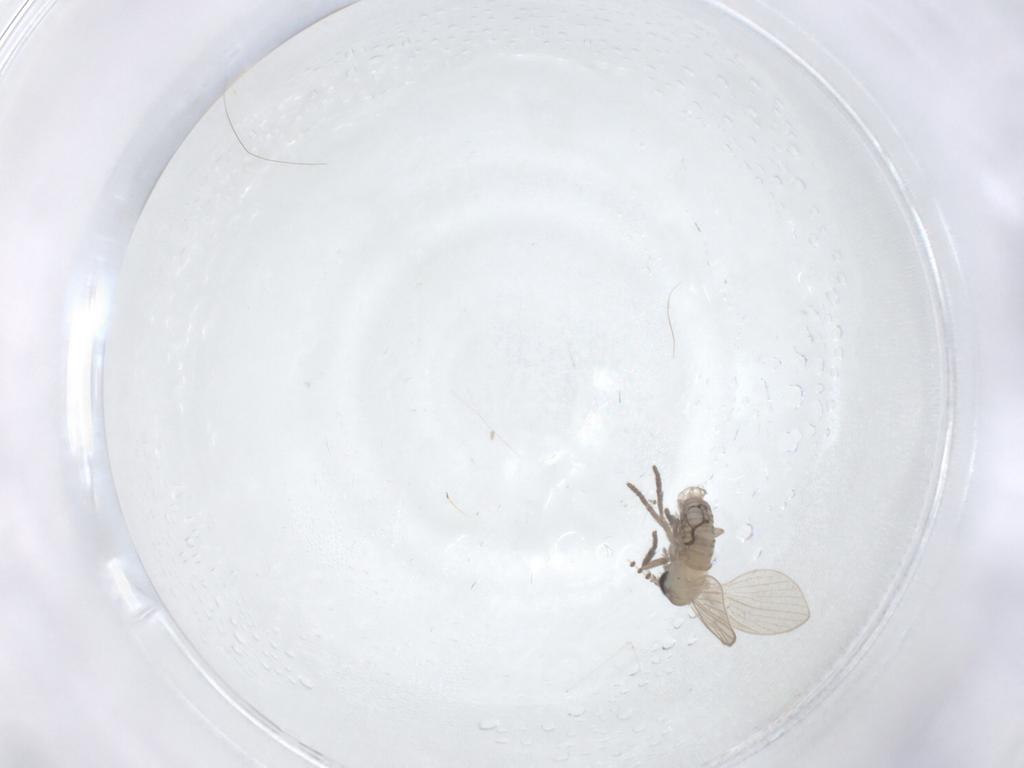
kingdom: Animalia
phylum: Arthropoda
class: Insecta
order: Diptera
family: Psychodidae
